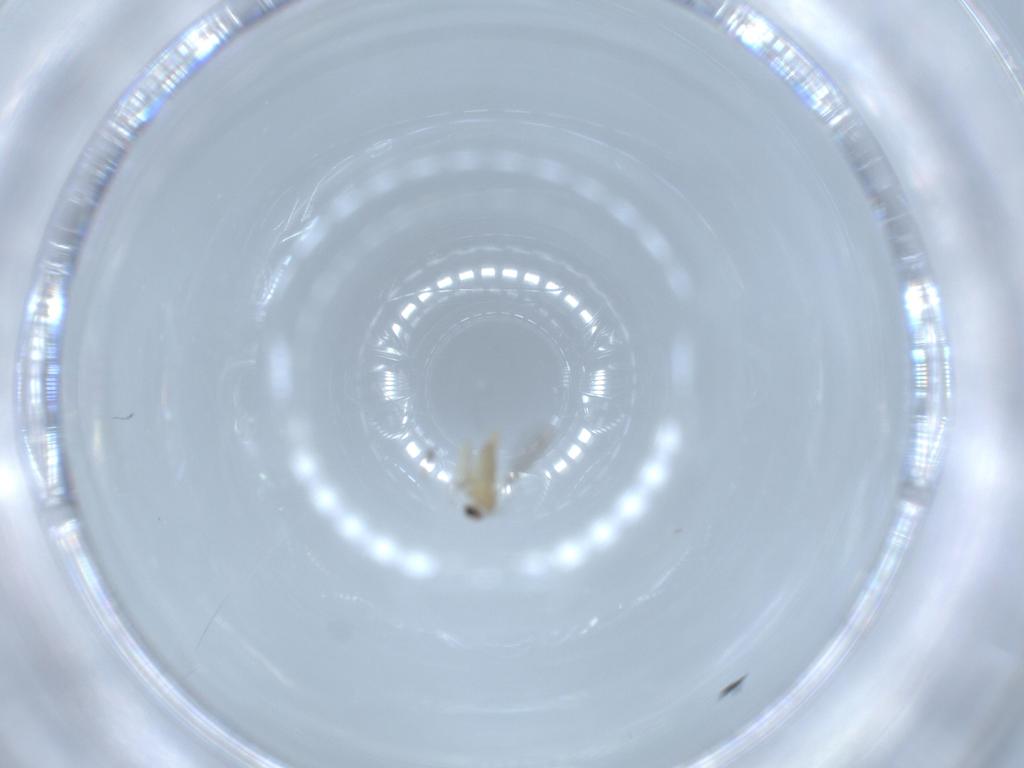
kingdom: Animalia
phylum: Arthropoda
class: Insecta
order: Diptera
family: Cecidomyiidae
